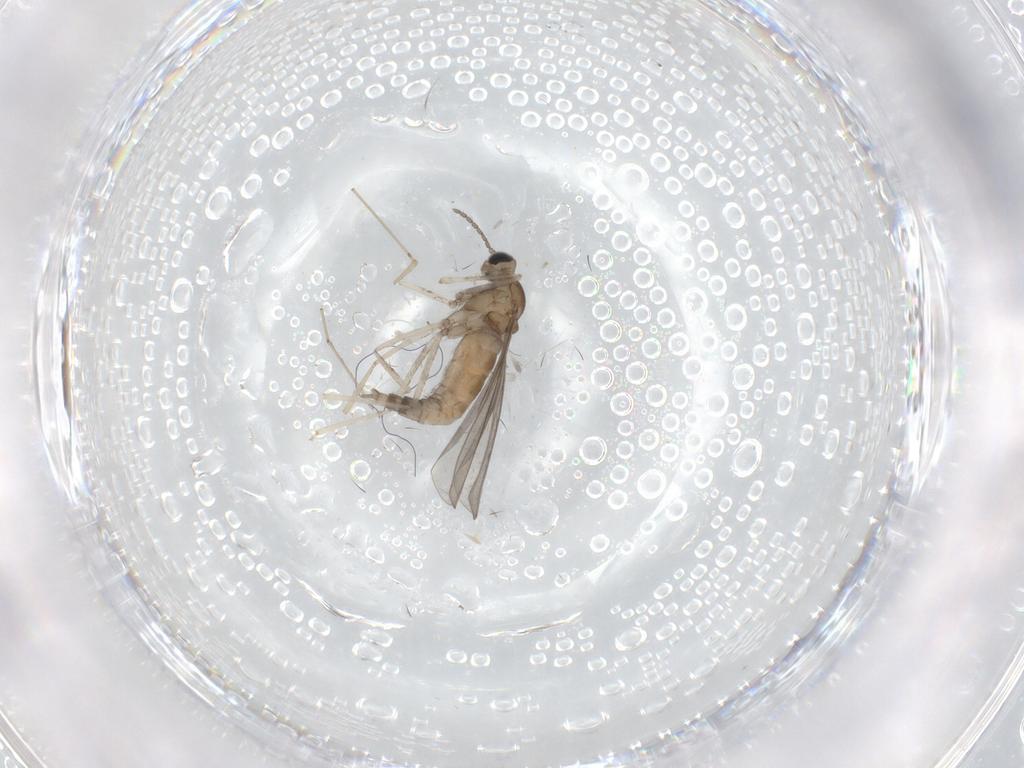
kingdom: Animalia
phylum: Arthropoda
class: Insecta
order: Diptera
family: Cecidomyiidae
